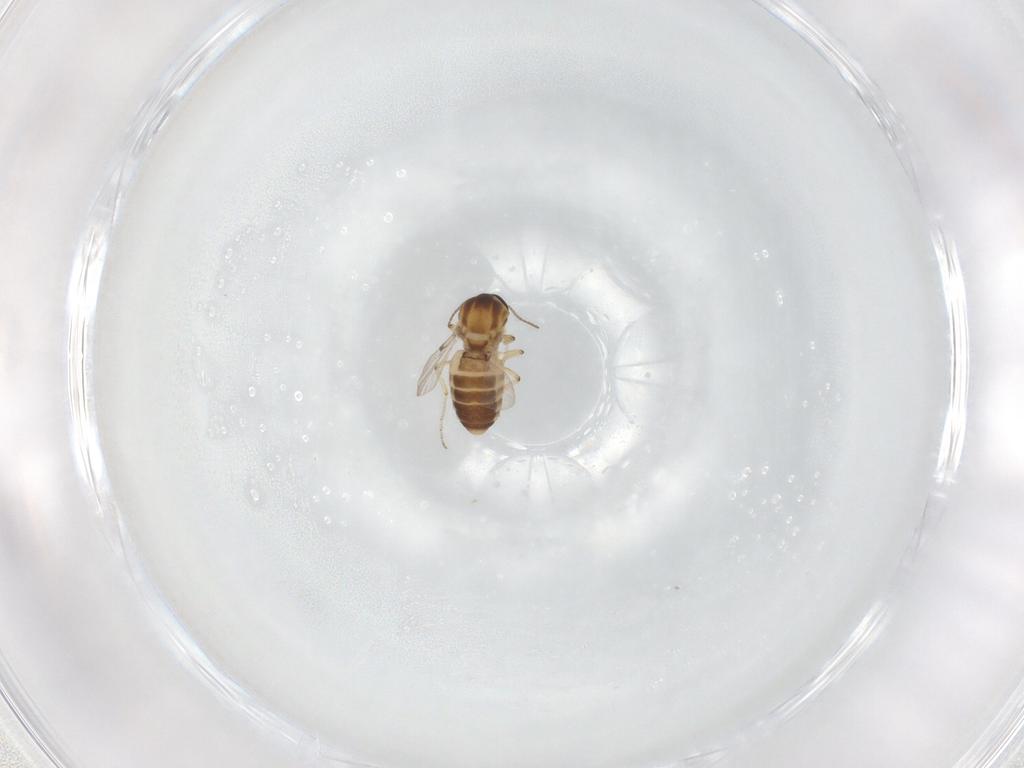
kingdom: Animalia
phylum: Arthropoda
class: Insecta
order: Diptera
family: Ceratopogonidae
